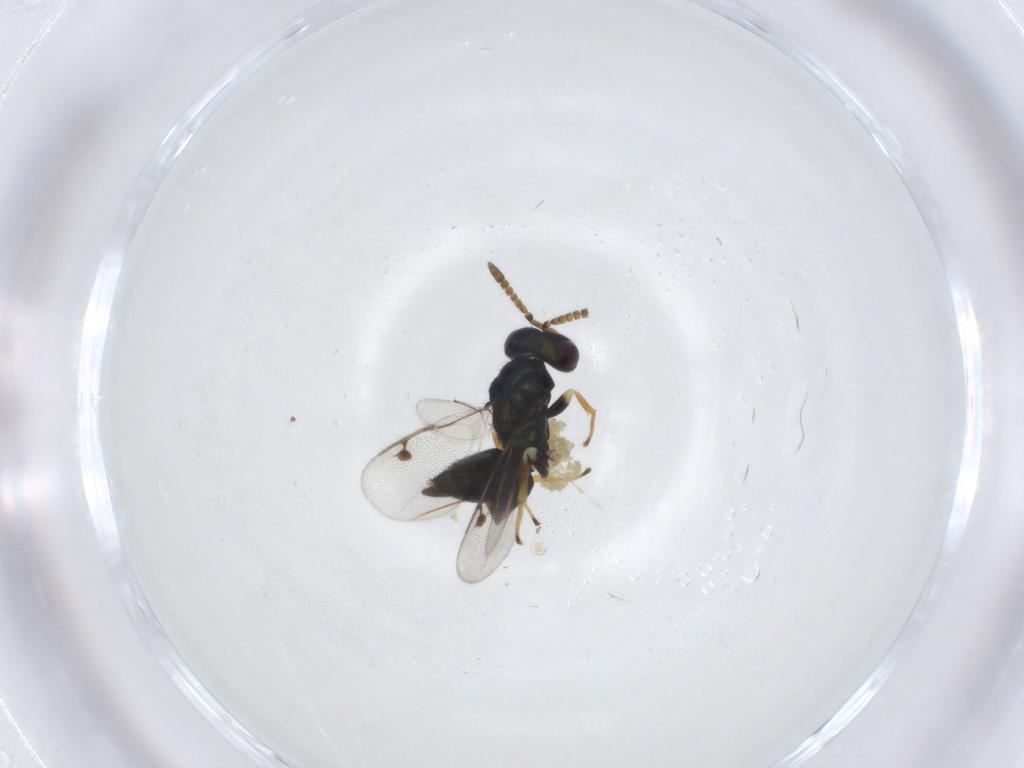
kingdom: Animalia
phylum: Arthropoda
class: Insecta
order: Hymenoptera
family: Pirenidae
